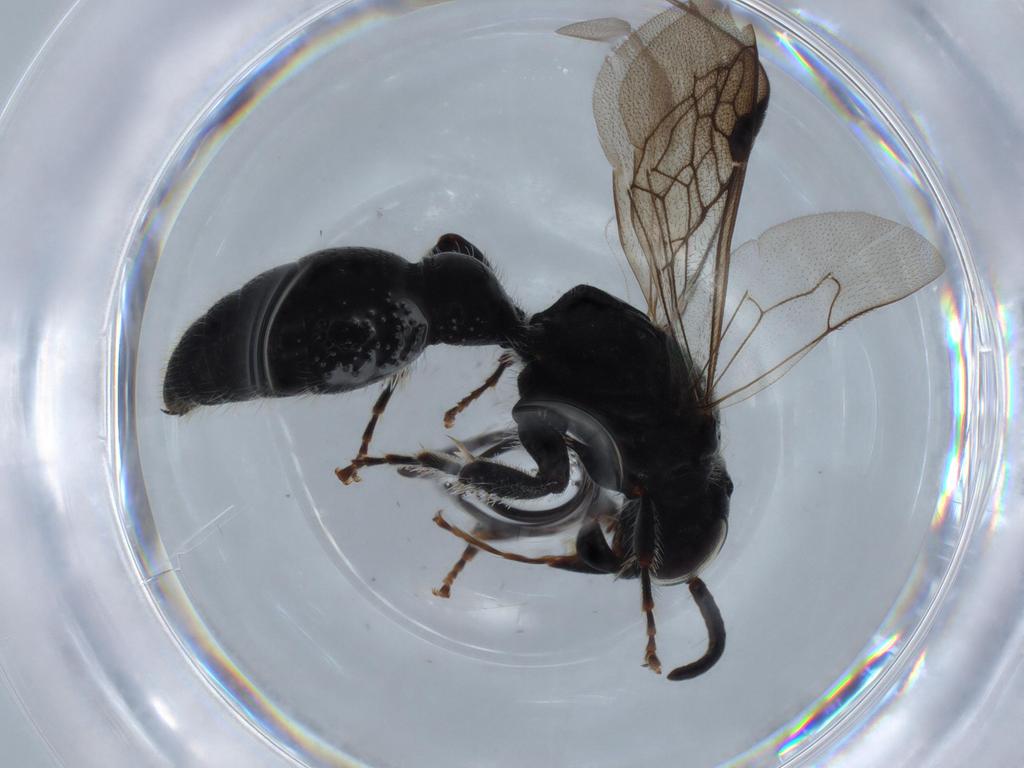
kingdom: Animalia
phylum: Arthropoda
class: Insecta
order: Hymenoptera
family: Tiphiidae
